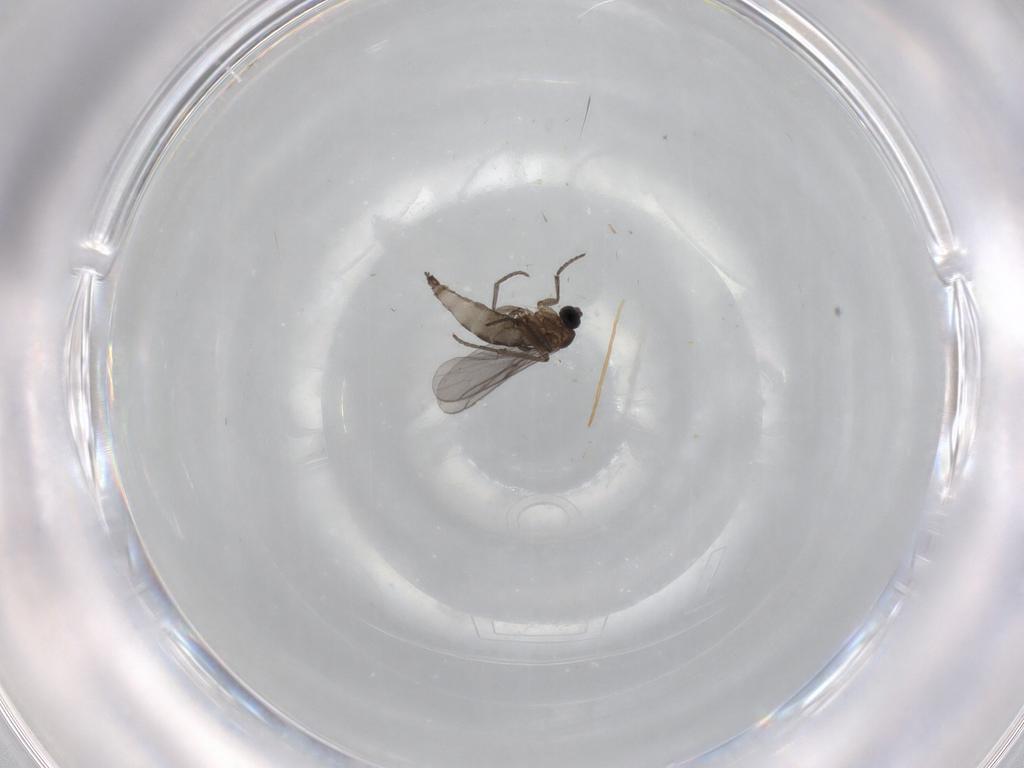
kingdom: Animalia
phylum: Arthropoda
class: Insecta
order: Diptera
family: Sciaridae
